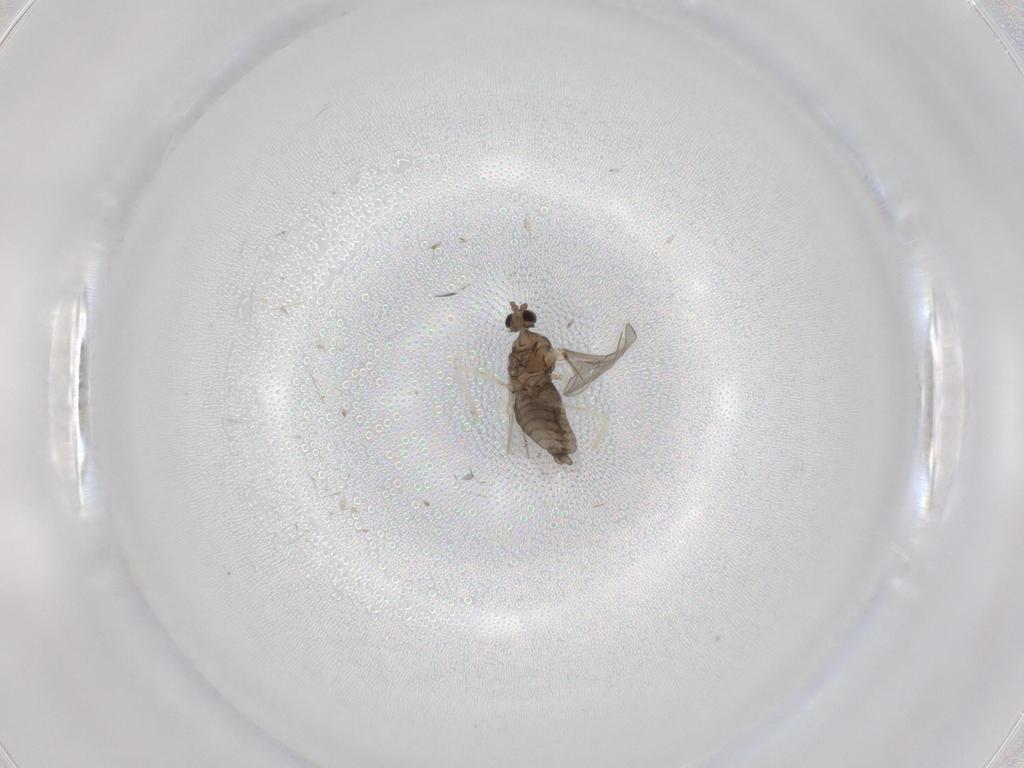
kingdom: Animalia
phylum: Arthropoda
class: Insecta
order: Diptera
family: Cecidomyiidae
